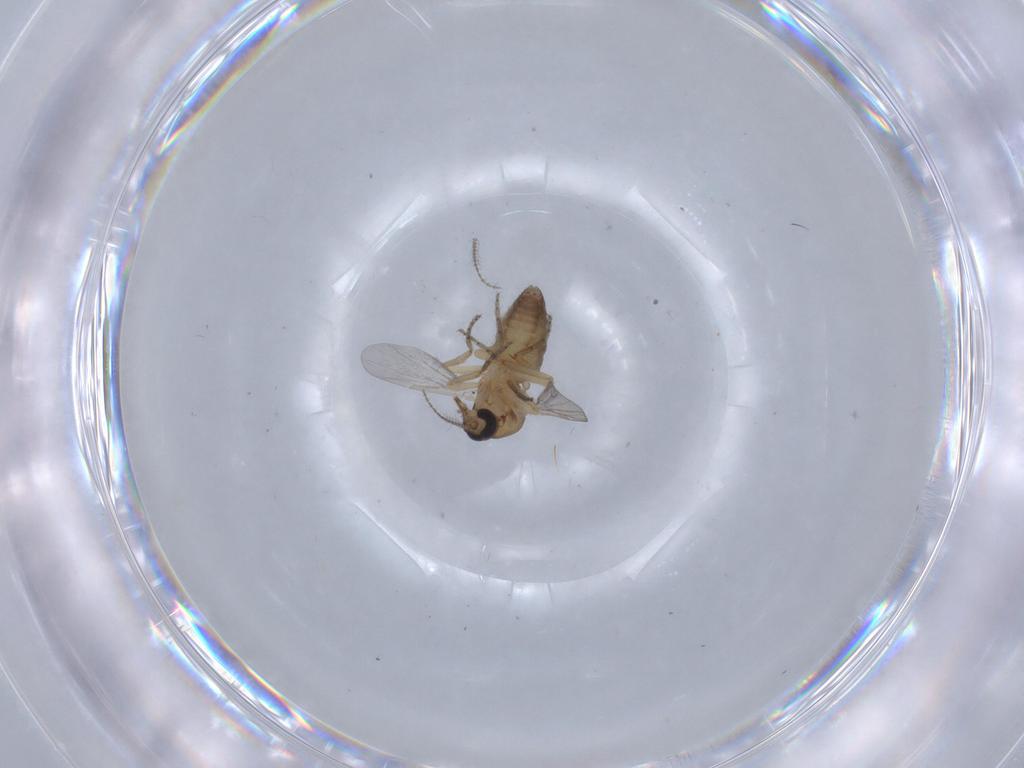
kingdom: Animalia
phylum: Arthropoda
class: Insecta
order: Diptera
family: Ceratopogonidae
